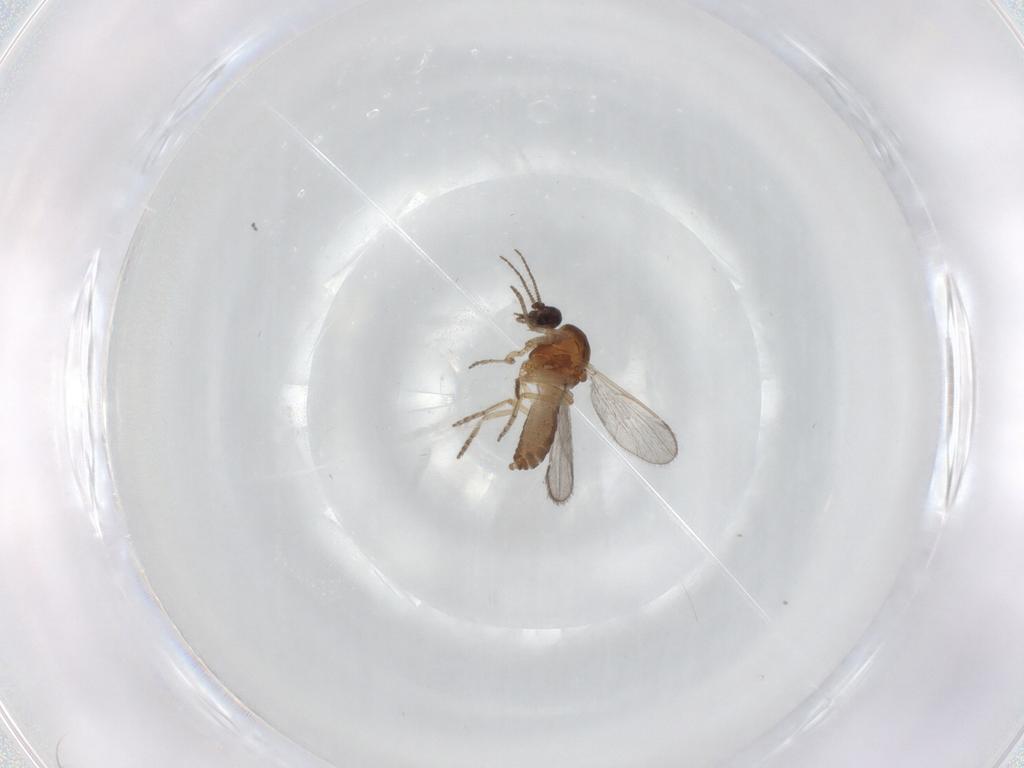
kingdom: Animalia
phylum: Arthropoda
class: Insecta
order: Diptera
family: Ceratopogonidae
